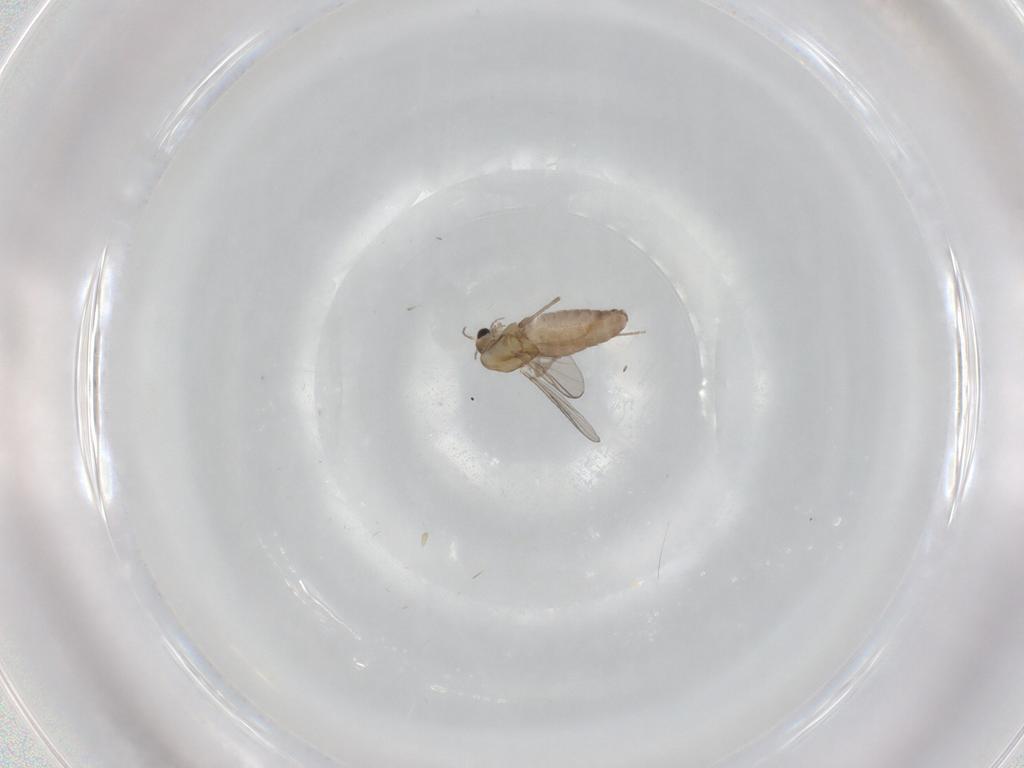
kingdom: Animalia
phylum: Arthropoda
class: Insecta
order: Diptera
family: Chironomidae
